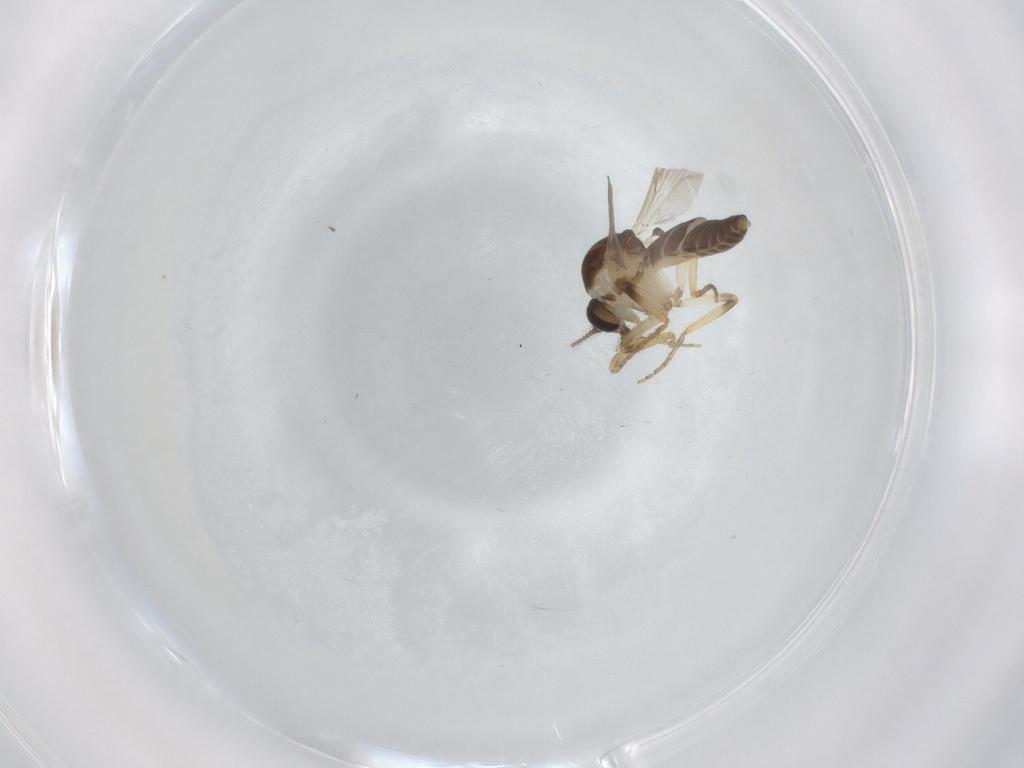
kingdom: Animalia
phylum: Arthropoda
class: Insecta
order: Diptera
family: Ceratopogonidae
